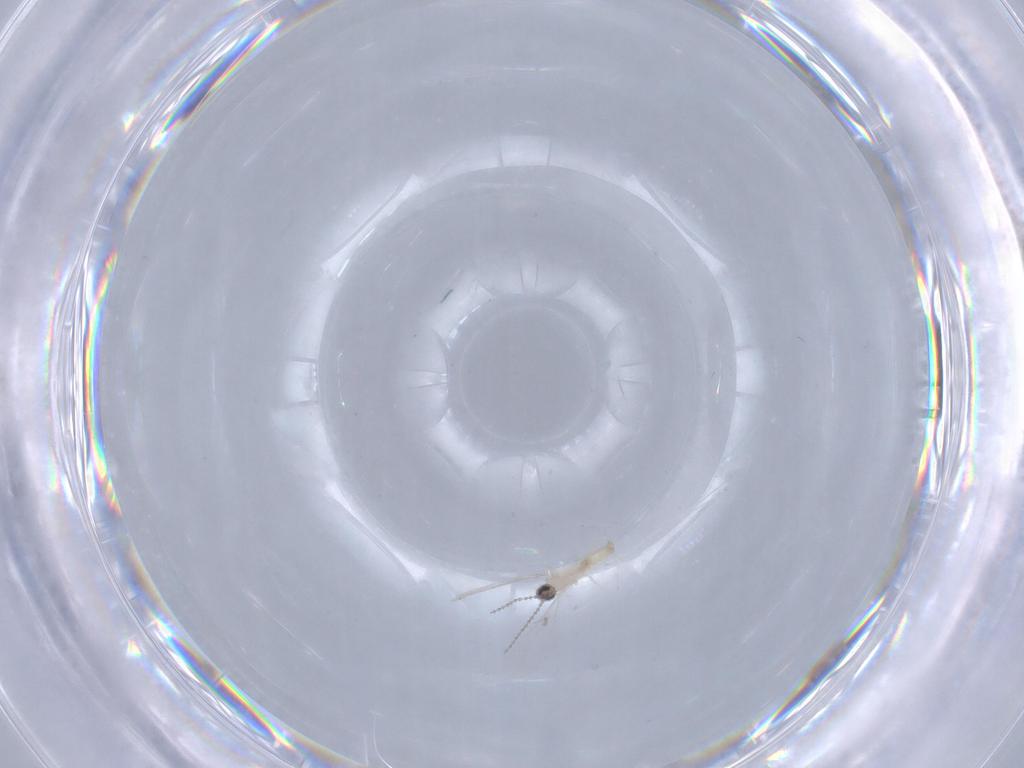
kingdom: Animalia
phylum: Arthropoda
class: Insecta
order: Diptera
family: Cecidomyiidae
